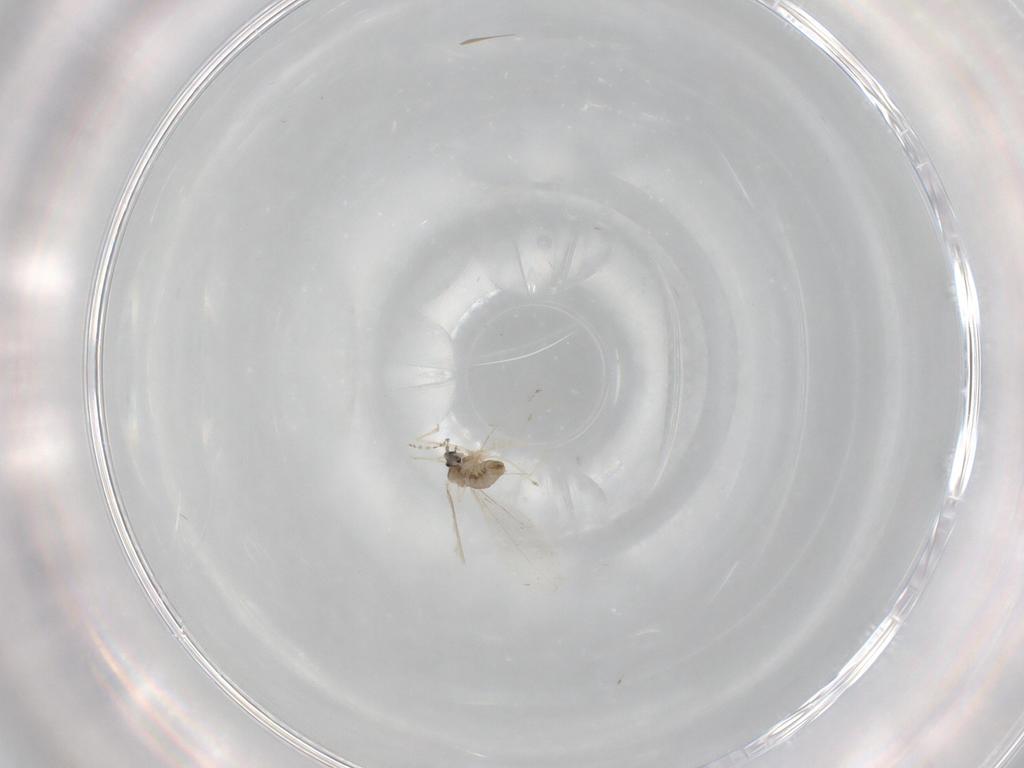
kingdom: Animalia
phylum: Arthropoda
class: Insecta
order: Diptera
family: Cecidomyiidae
